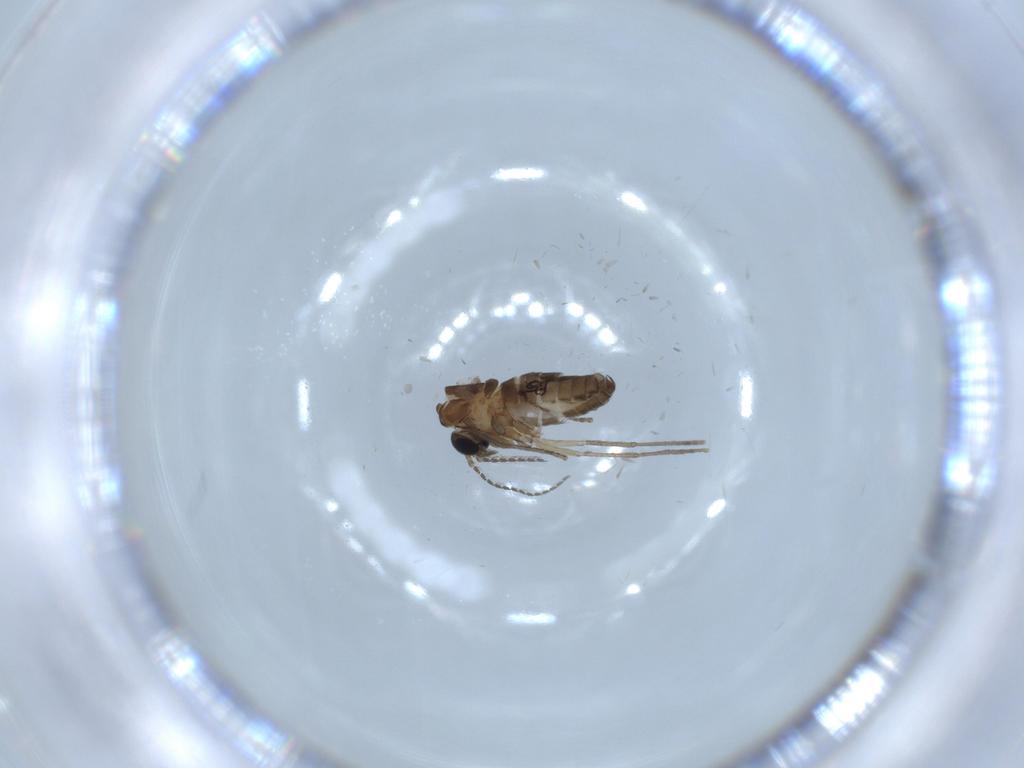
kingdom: Animalia
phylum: Arthropoda
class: Insecta
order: Diptera
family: Psychodidae
